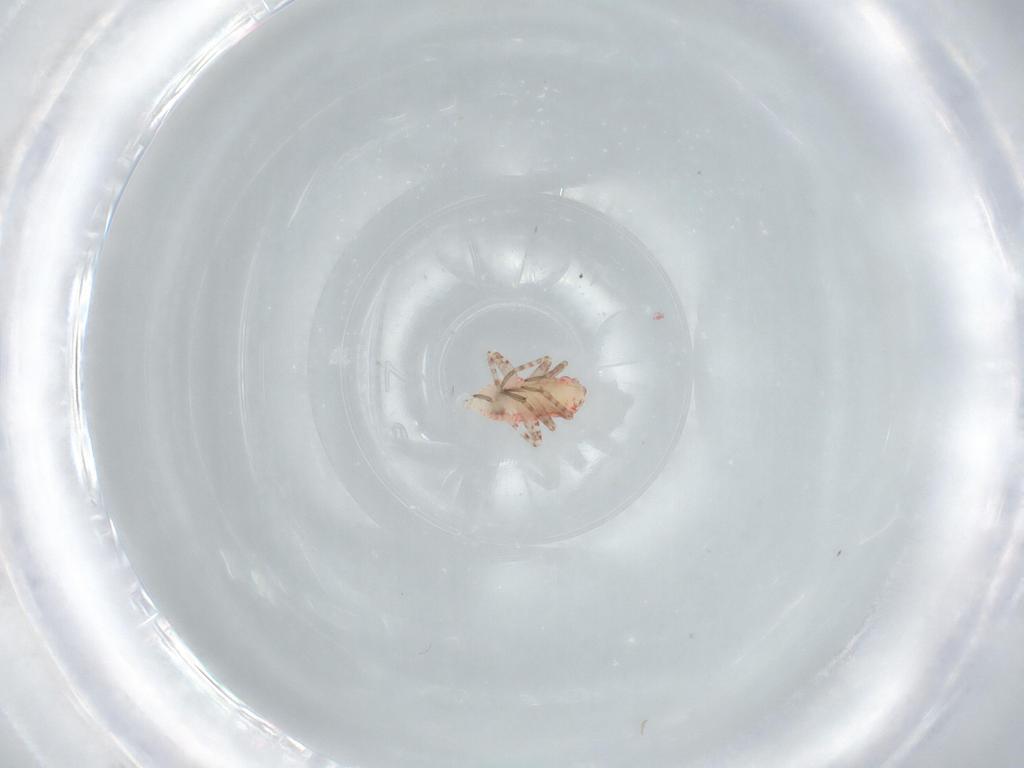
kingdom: Animalia
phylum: Arthropoda
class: Insecta
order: Hemiptera
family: Miridae
